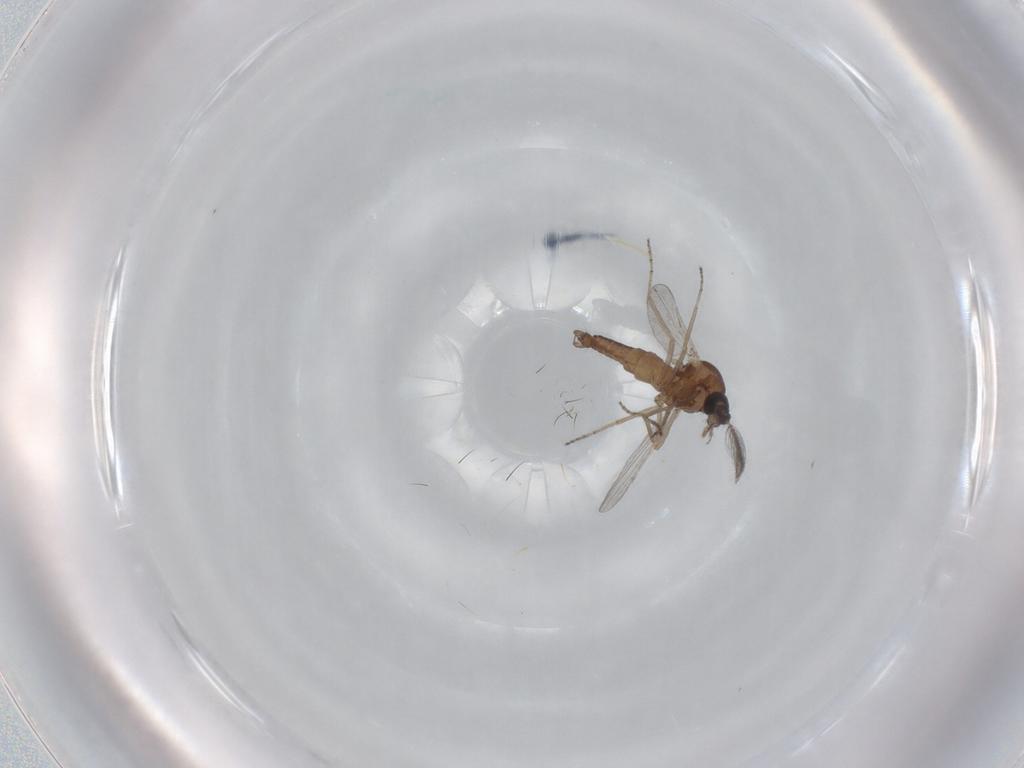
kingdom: Animalia
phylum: Arthropoda
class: Insecta
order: Diptera
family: Ceratopogonidae
